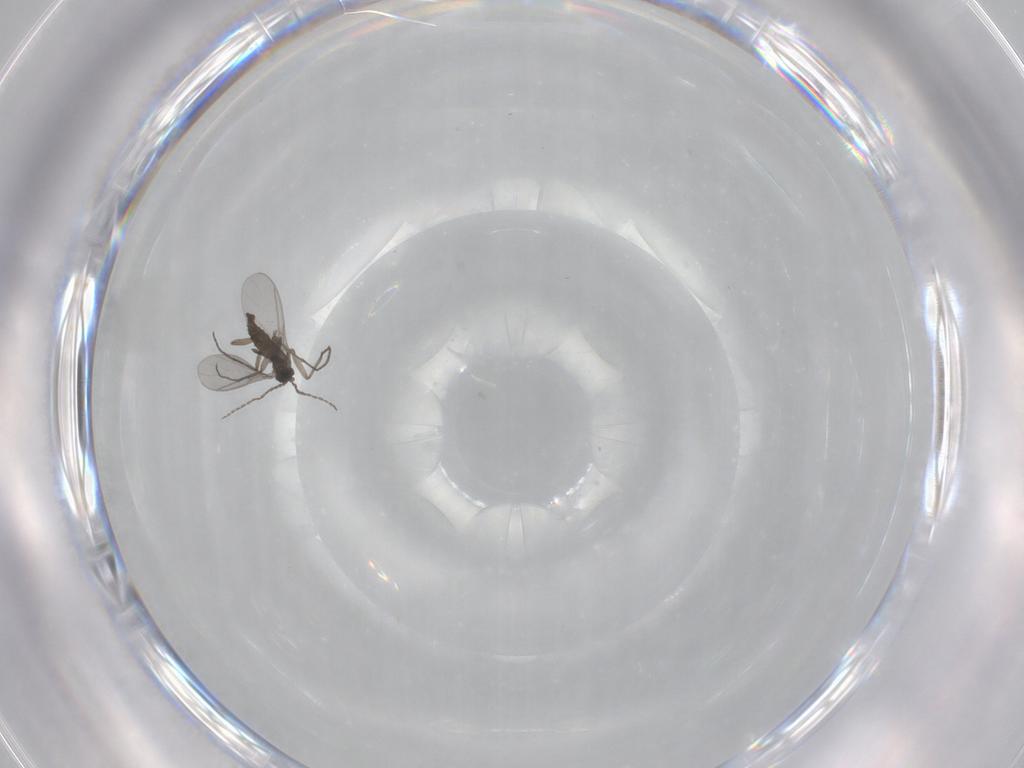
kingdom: Animalia
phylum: Arthropoda
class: Insecta
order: Diptera
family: Sciaridae
